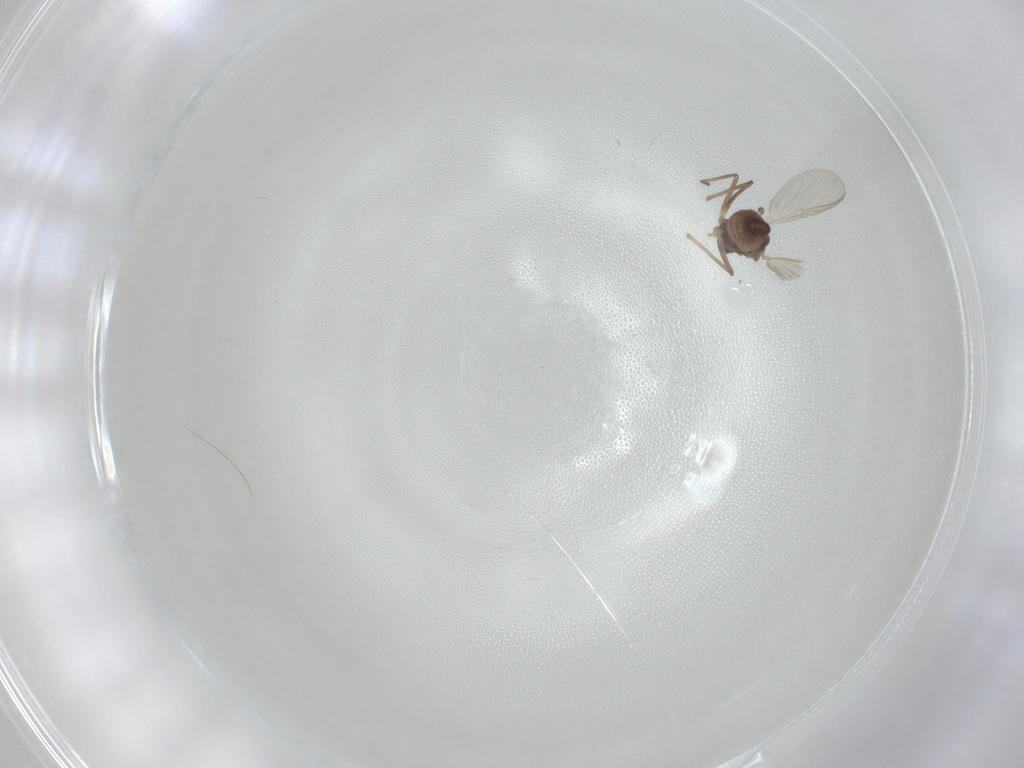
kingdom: Animalia
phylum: Arthropoda
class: Insecta
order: Diptera
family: Chironomidae
